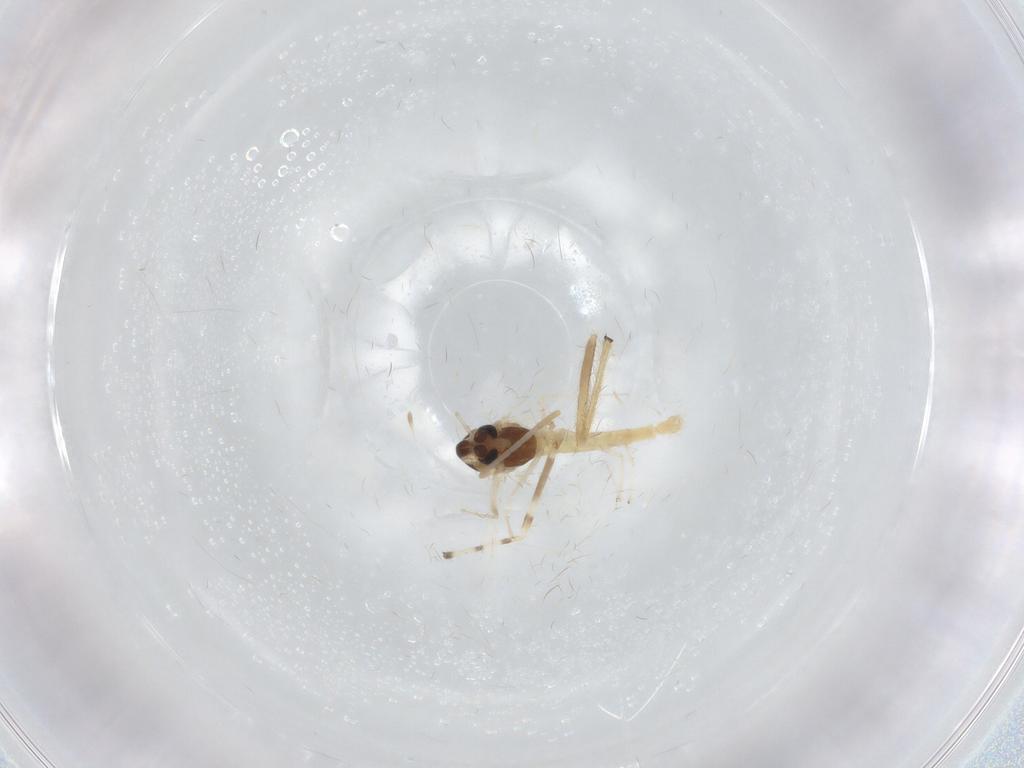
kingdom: Animalia
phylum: Arthropoda
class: Insecta
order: Diptera
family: Chironomidae
